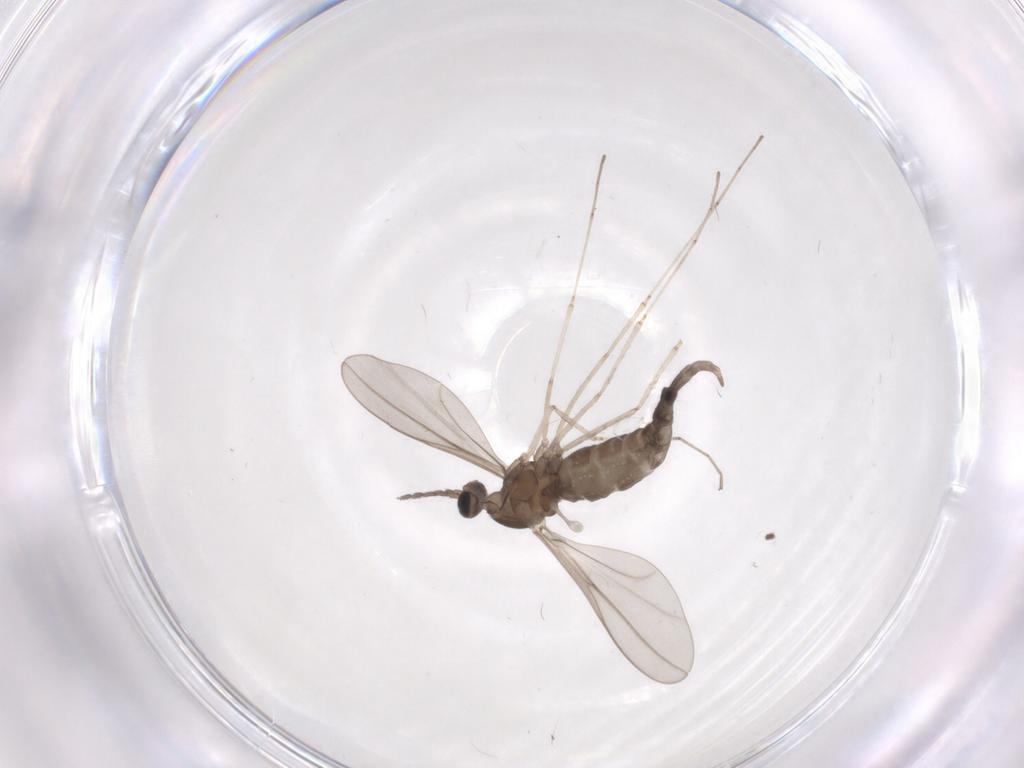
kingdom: Animalia
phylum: Arthropoda
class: Insecta
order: Diptera
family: Cecidomyiidae
